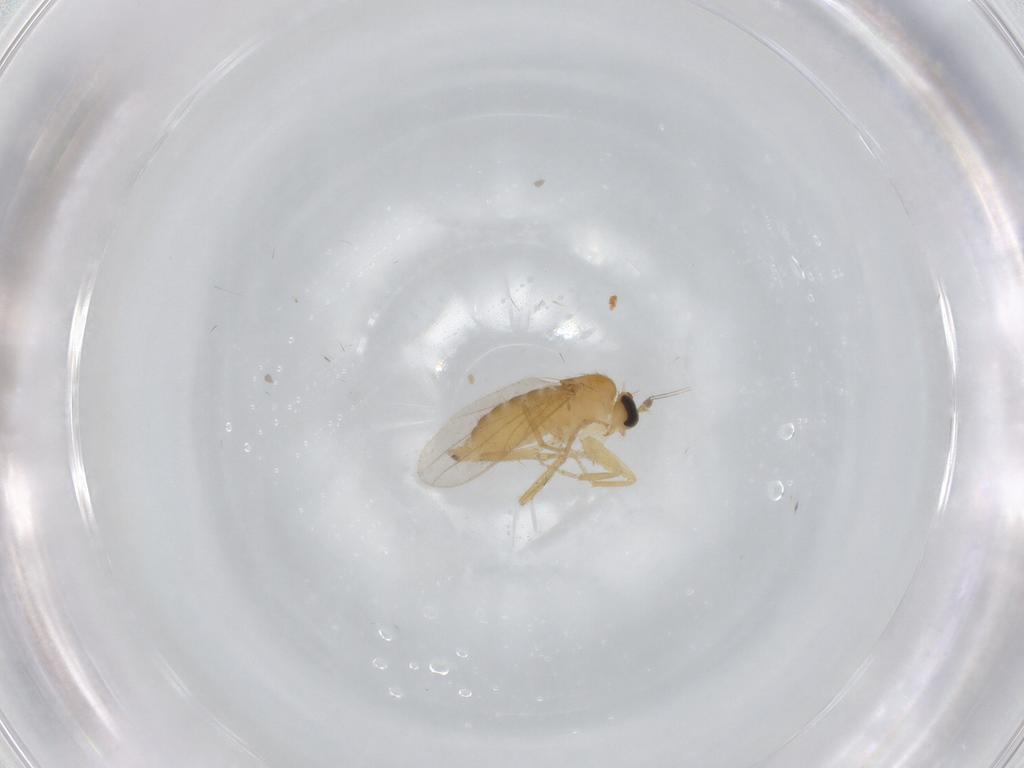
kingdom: Animalia
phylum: Arthropoda
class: Insecta
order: Diptera
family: Hybotidae
